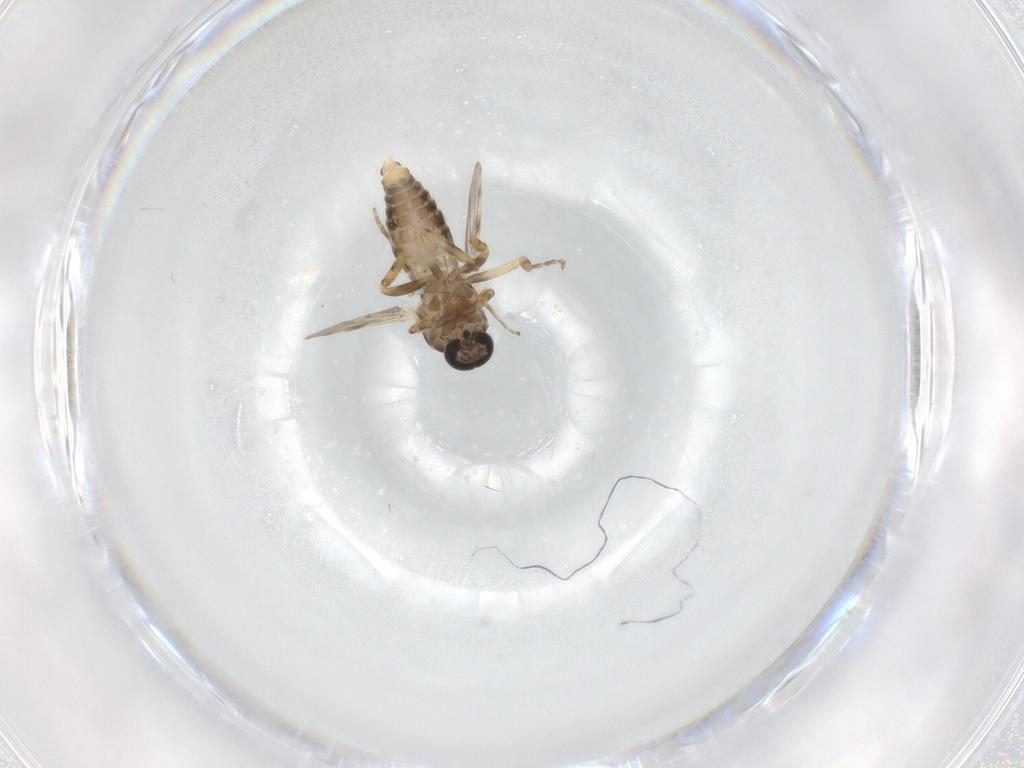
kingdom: Animalia
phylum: Arthropoda
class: Insecta
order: Diptera
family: Ceratopogonidae
